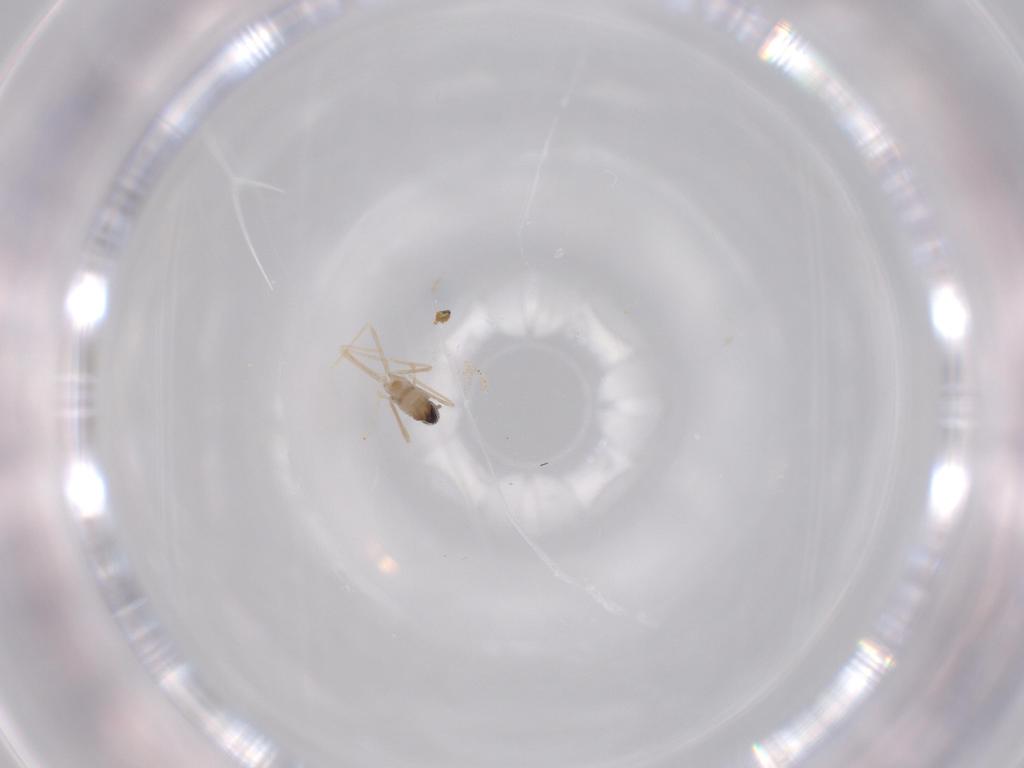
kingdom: Animalia
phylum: Arthropoda
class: Insecta
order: Diptera
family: Cecidomyiidae
